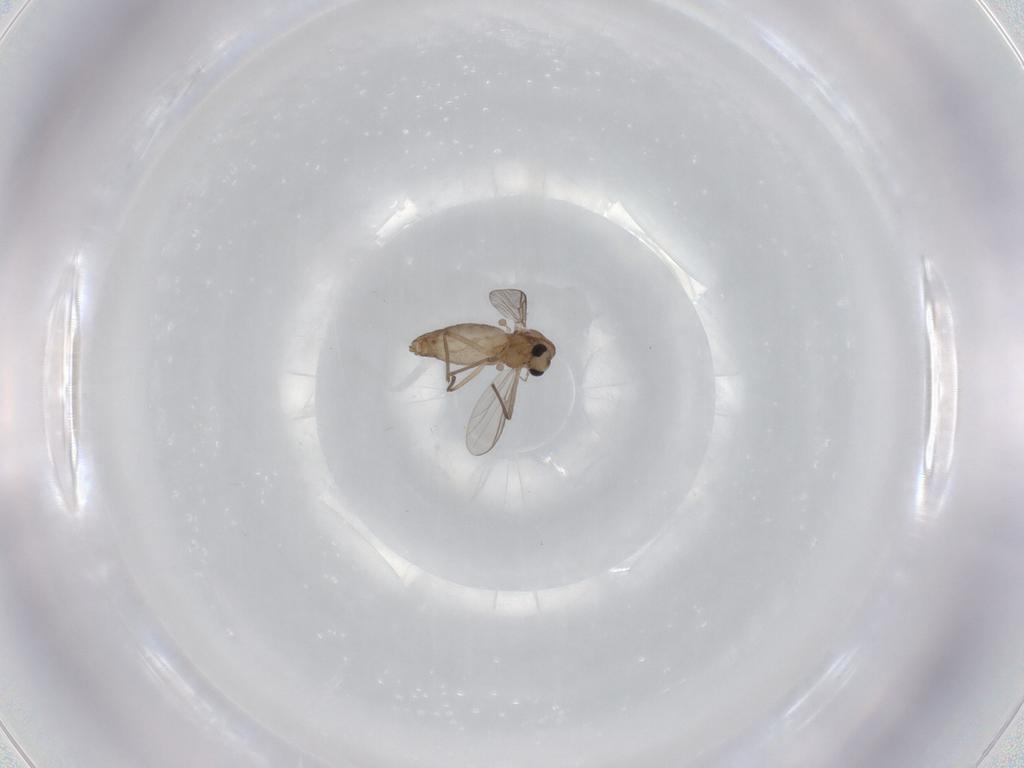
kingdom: Animalia
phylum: Arthropoda
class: Insecta
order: Diptera
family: Chironomidae
